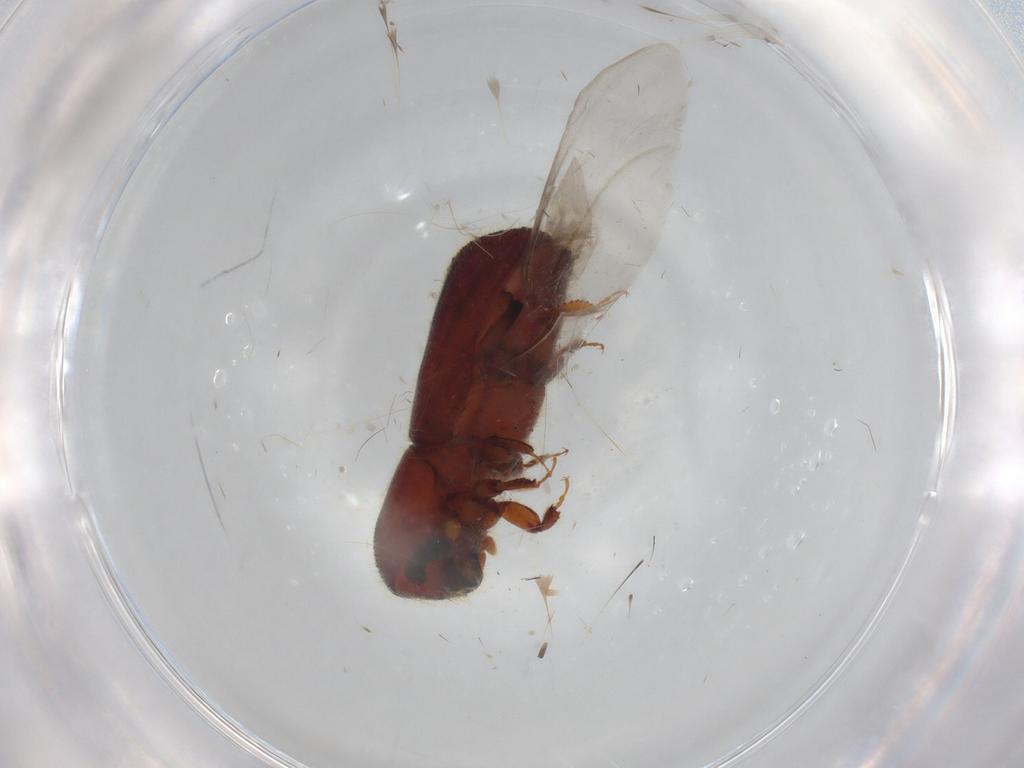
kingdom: Animalia
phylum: Arthropoda
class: Insecta
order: Coleoptera
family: Curculionidae
